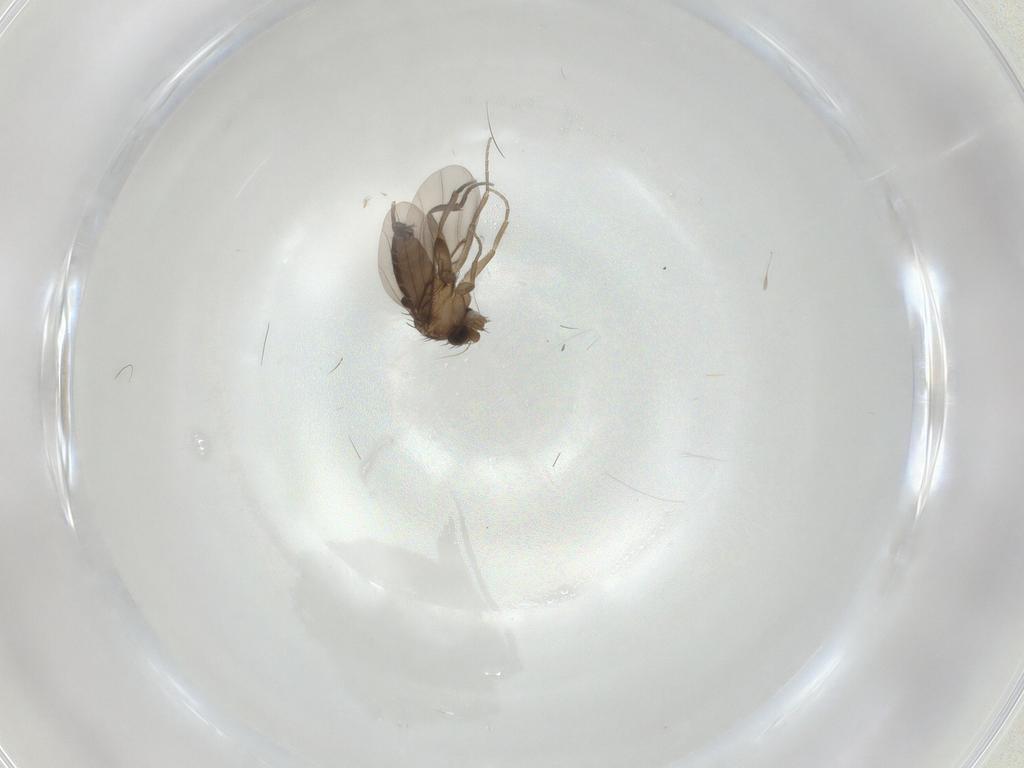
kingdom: Animalia
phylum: Arthropoda
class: Insecta
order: Diptera
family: Phoridae
